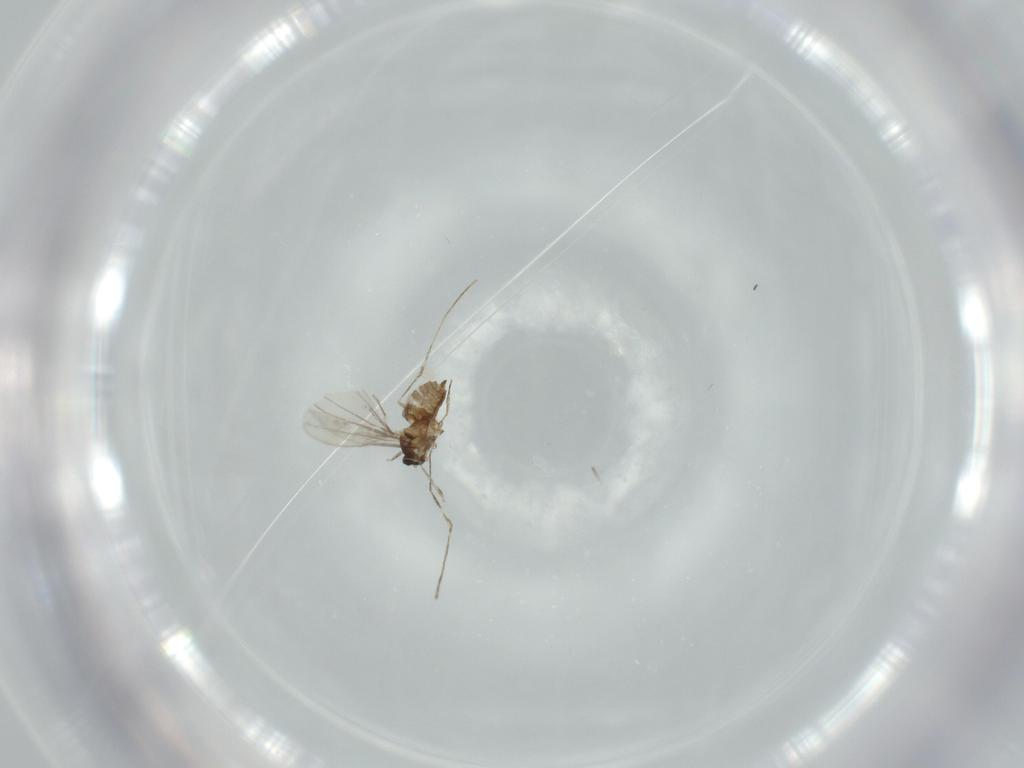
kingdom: Animalia
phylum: Arthropoda
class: Insecta
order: Diptera
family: Cecidomyiidae
